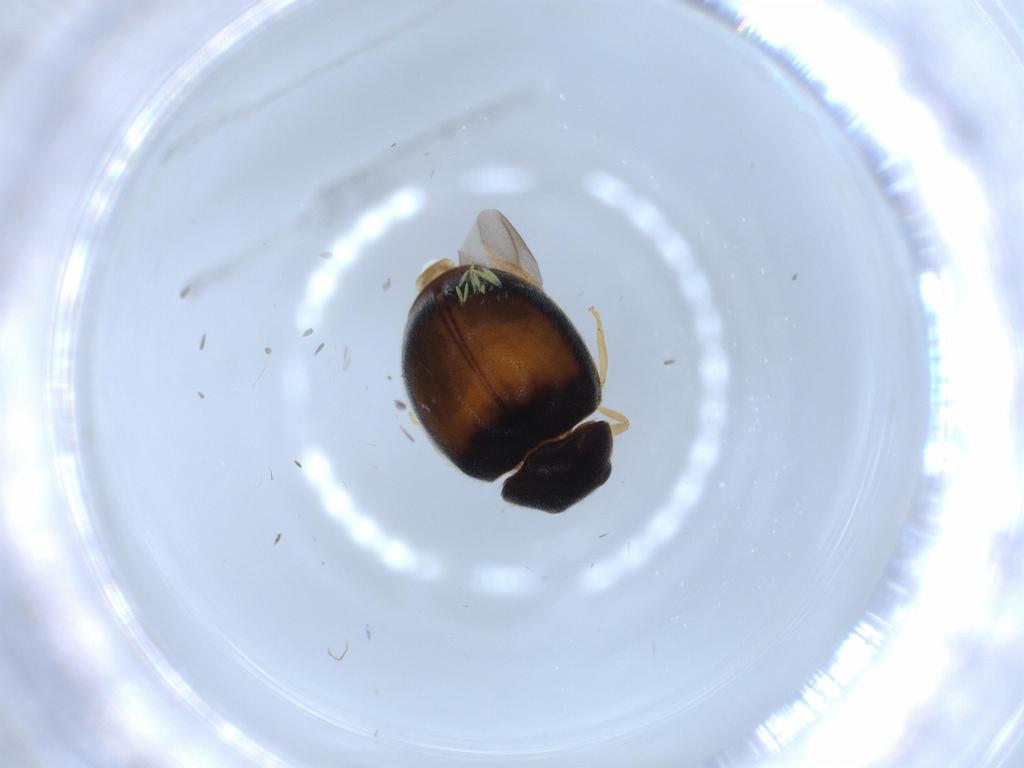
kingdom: Animalia
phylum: Arthropoda
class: Insecta
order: Coleoptera
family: Coccinellidae
